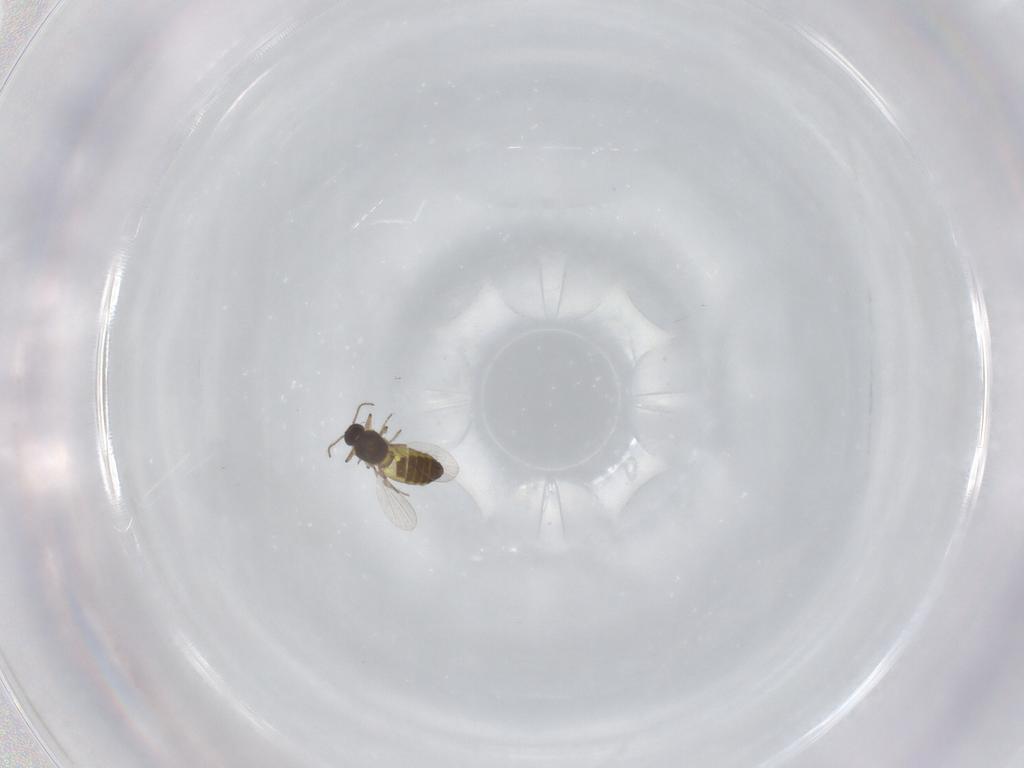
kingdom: Animalia
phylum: Arthropoda
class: Insecta
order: Diptera
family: Ceratopogonidae
